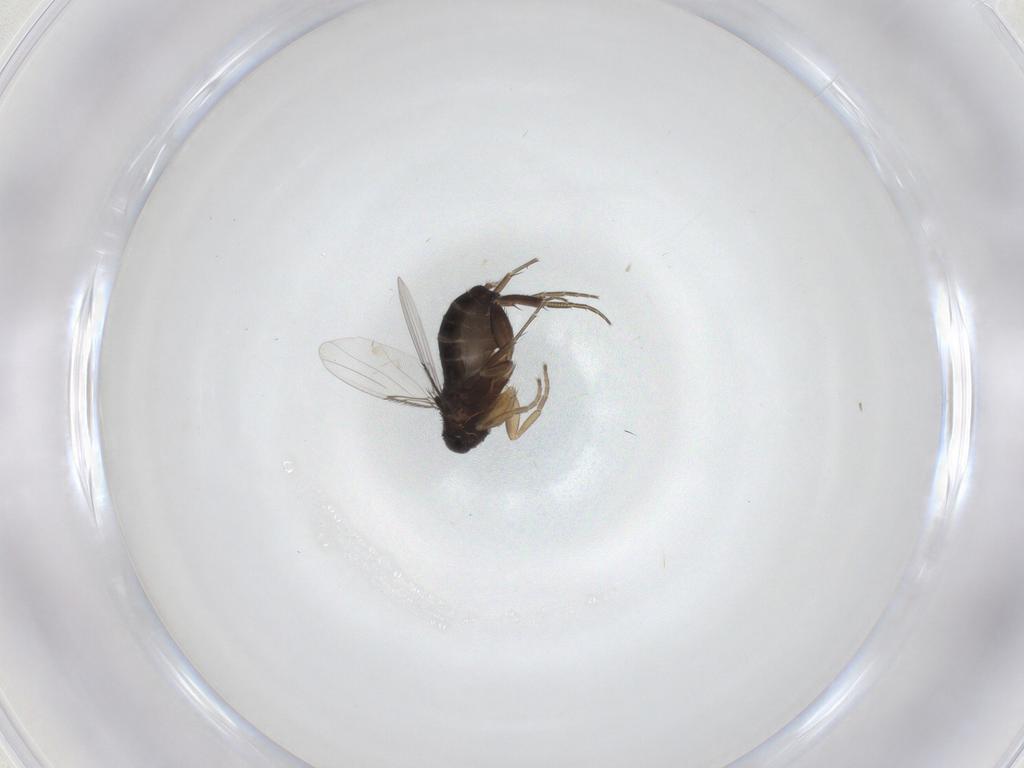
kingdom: Animalia
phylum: Arthropoda
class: Insecta
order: Diptera
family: Phoridae
